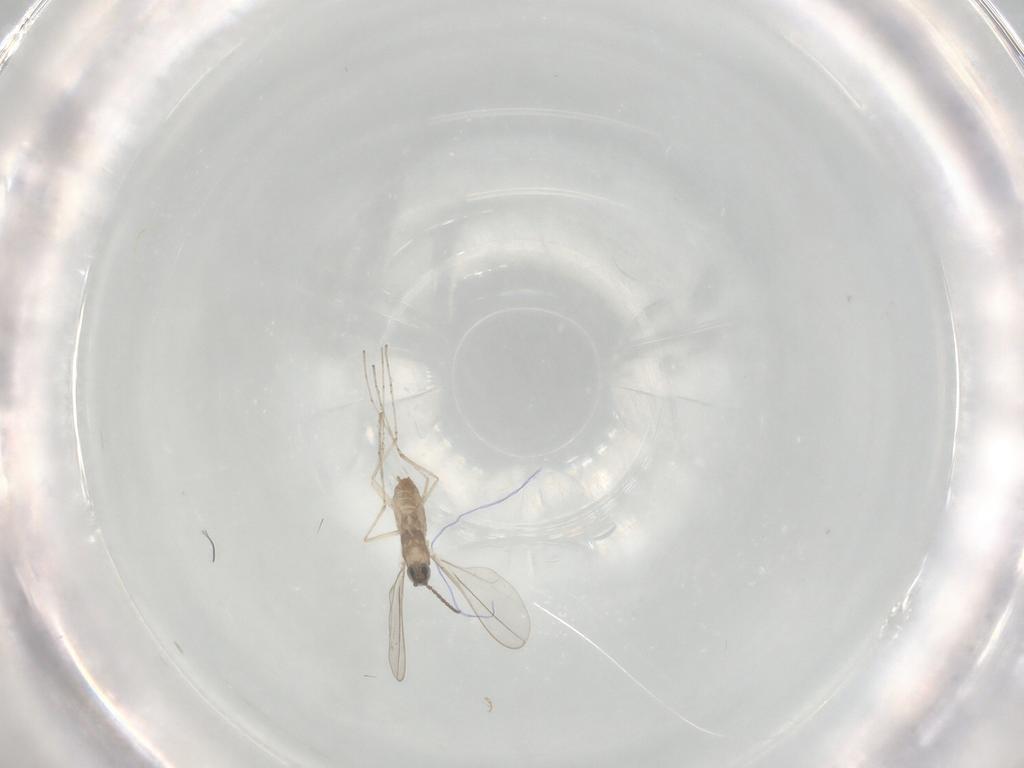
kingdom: Animalia
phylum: Arthropoda
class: Insecta
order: Diptera
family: Cecidomyiidae
